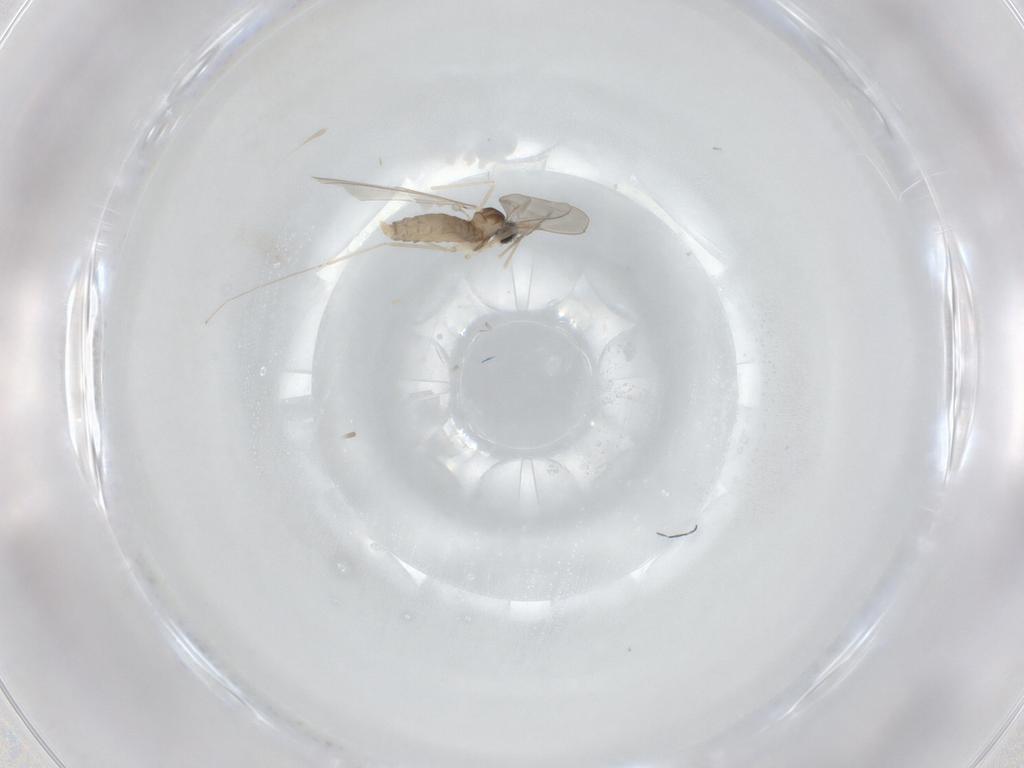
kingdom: Animalia
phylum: Arthropoda
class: Insecta
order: Diptera
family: Cecidomyiidae
